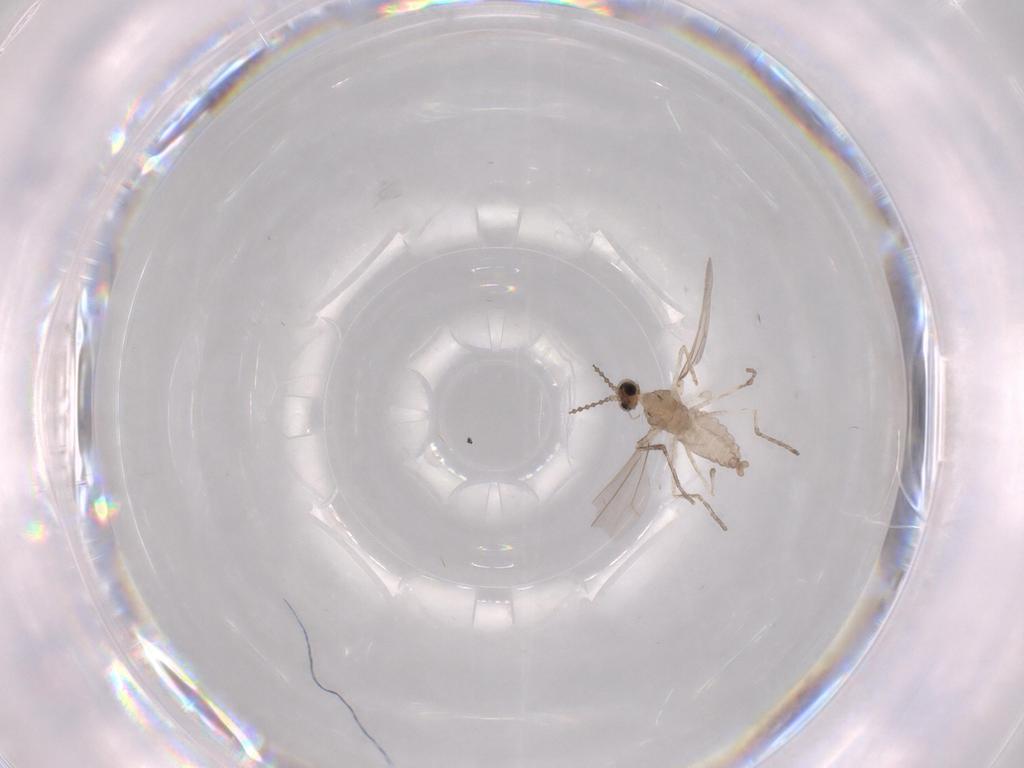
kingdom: Animalia
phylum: Arthropoda
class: Insecta
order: Diptera
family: Cecidomyiidae
